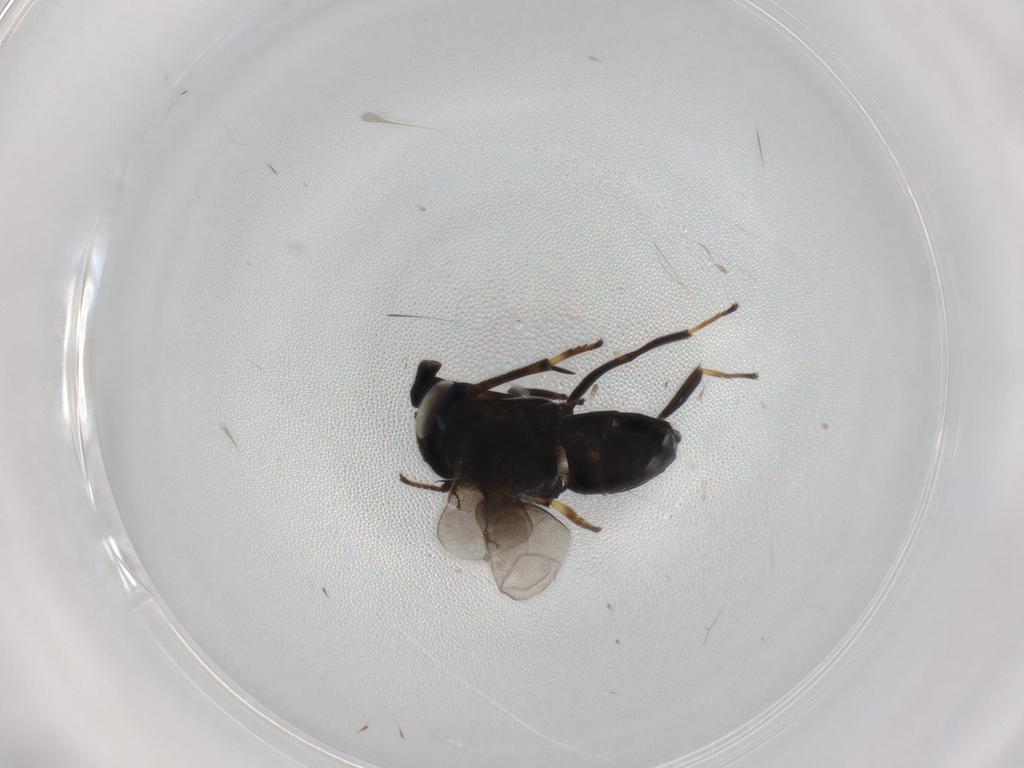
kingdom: Animalia
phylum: Arthropoda
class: Insecta
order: Hymenoptera
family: Encyrtidae
